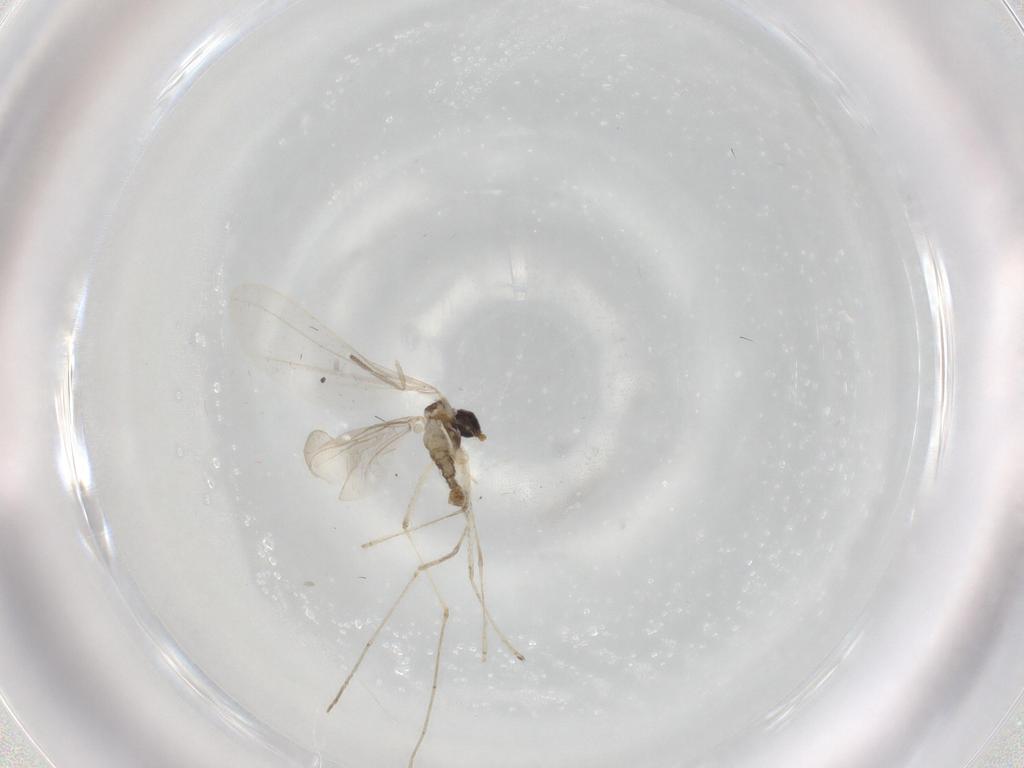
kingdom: Animalia
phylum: Arthropoda
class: Insecta
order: Diptera
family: Cecidomyiidae
